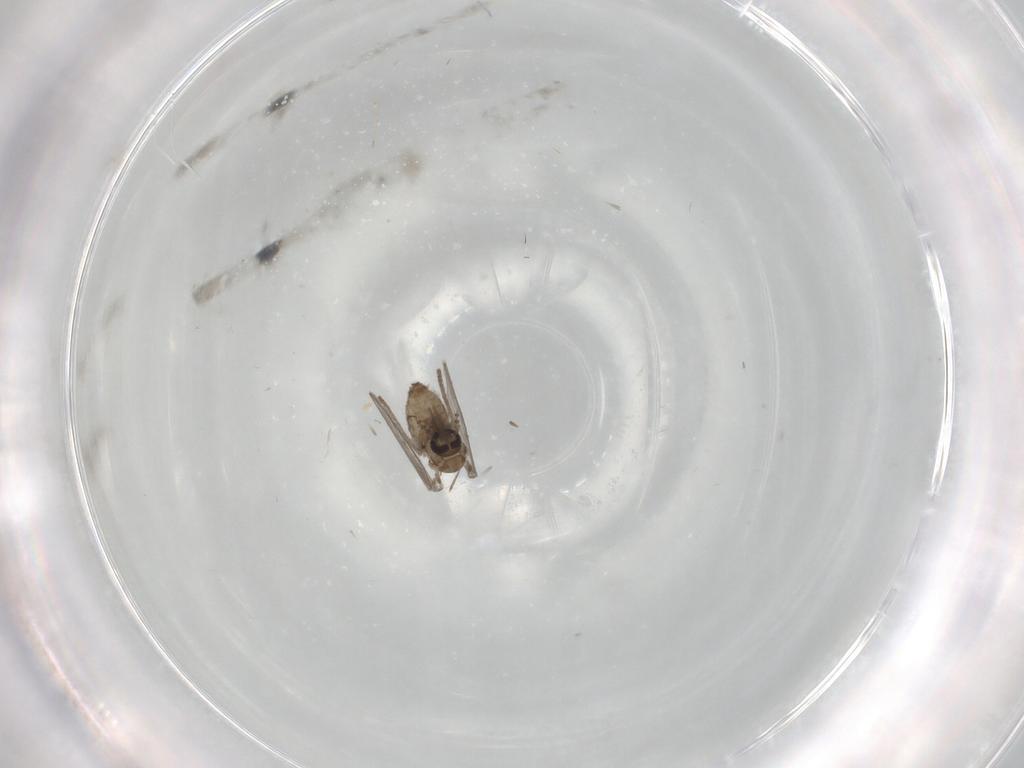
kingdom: Animalia
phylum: Arthropoda
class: Insecta
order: Diptera
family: Psychodidae
